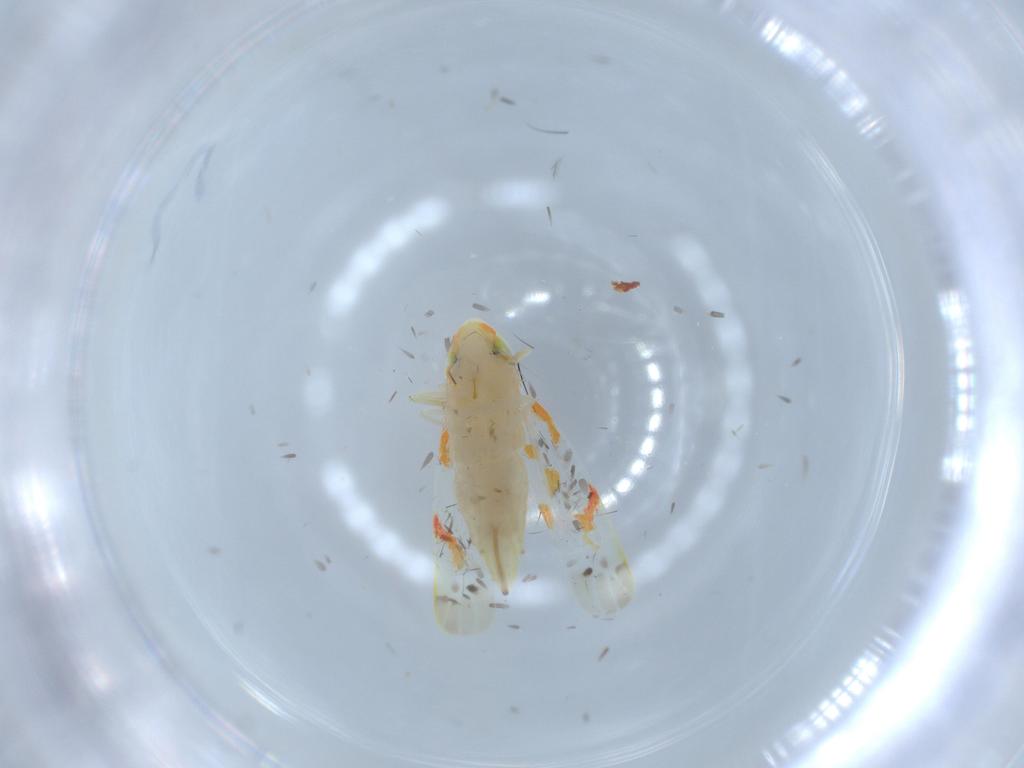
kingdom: Animalia
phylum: Arthropoda
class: Insecta
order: Hemiptera
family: Cicadellidae
